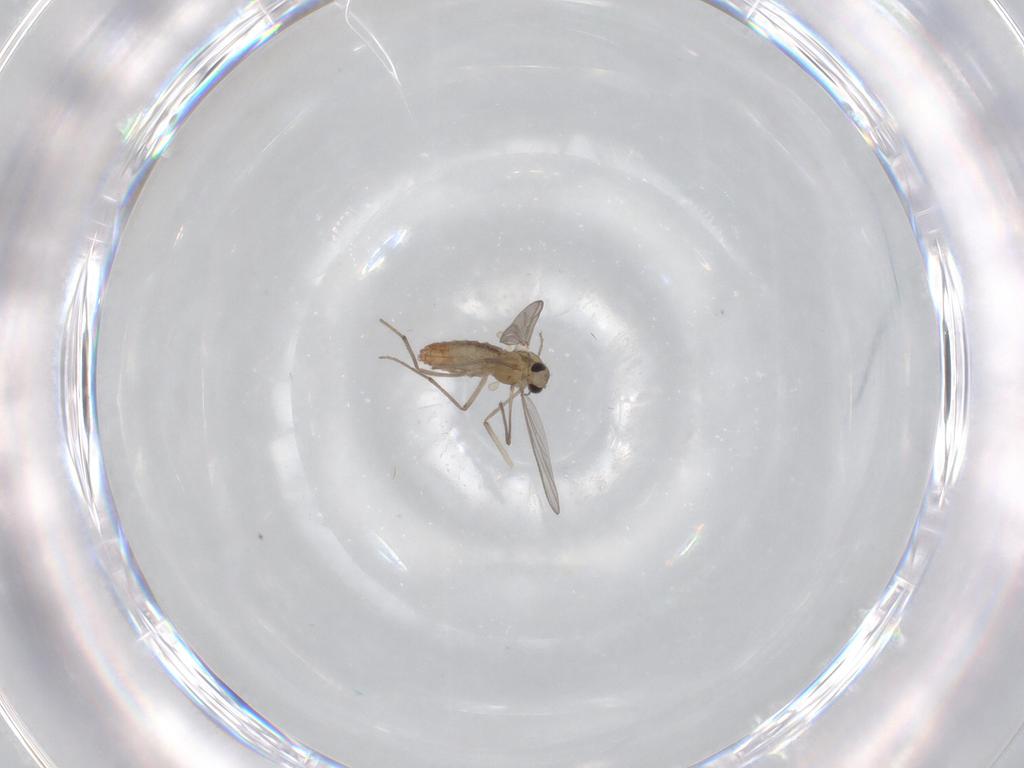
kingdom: Animalia
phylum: Arthropoda
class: Insecta
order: Diptera
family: Chironomidae
